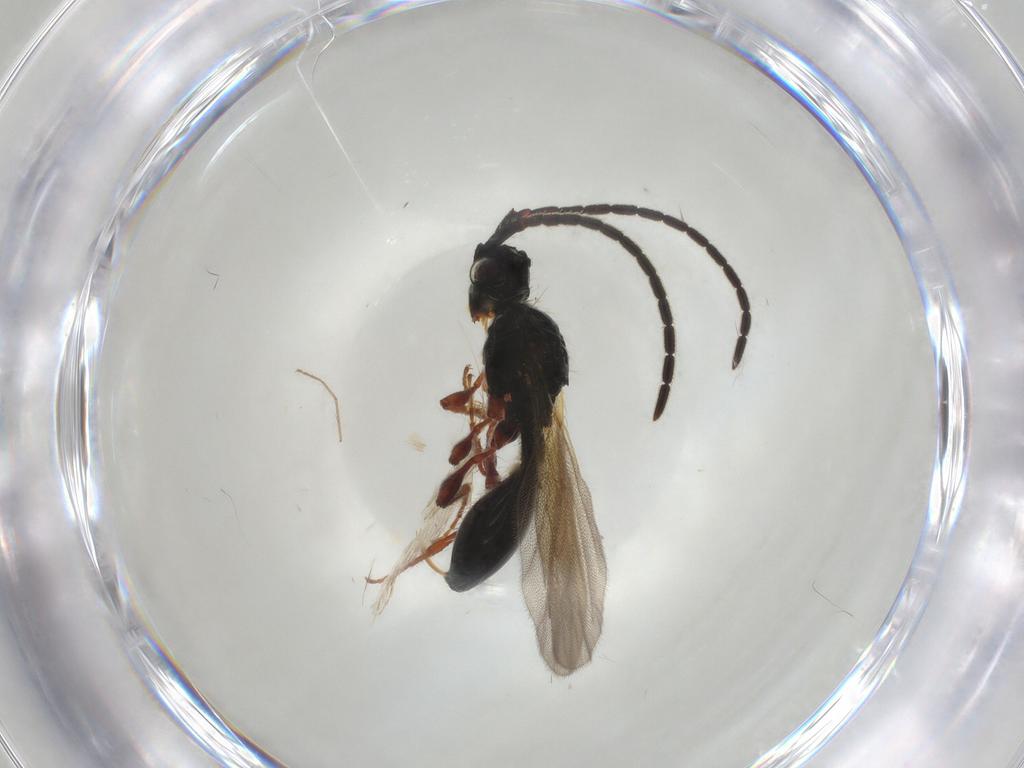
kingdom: Animalia
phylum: Arthropoda
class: Insecta
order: Hymenoptera
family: Diapriidae
